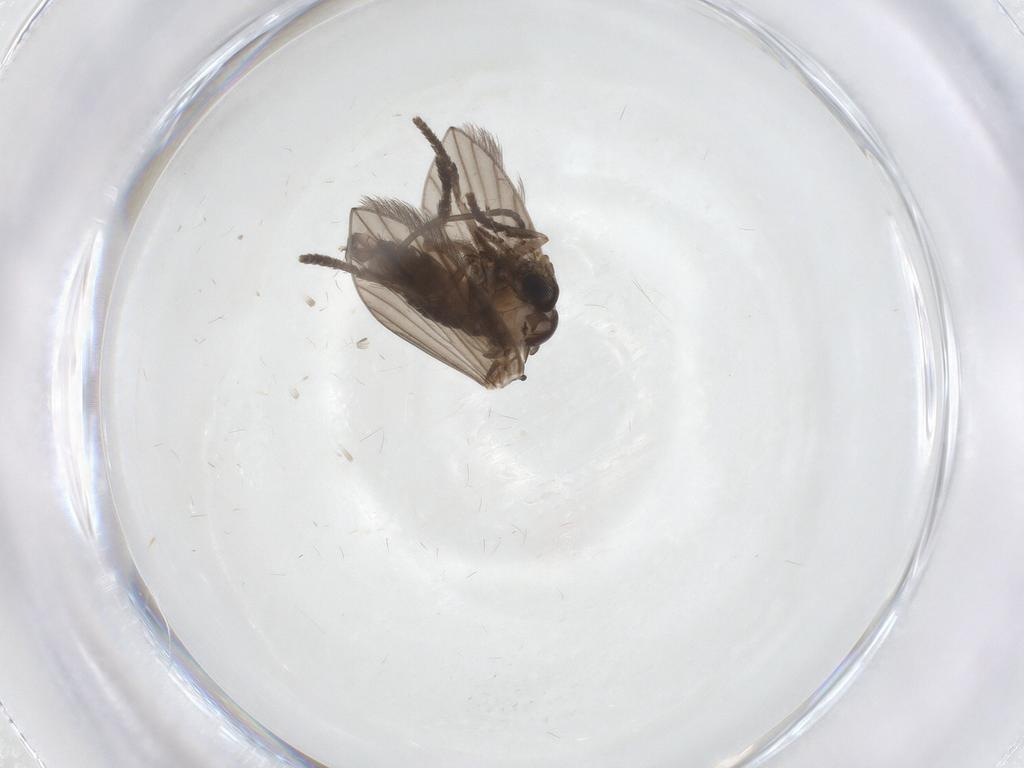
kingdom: Animalia
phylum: Arthropoda
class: Insecta
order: Diptera
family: Psychodidae
